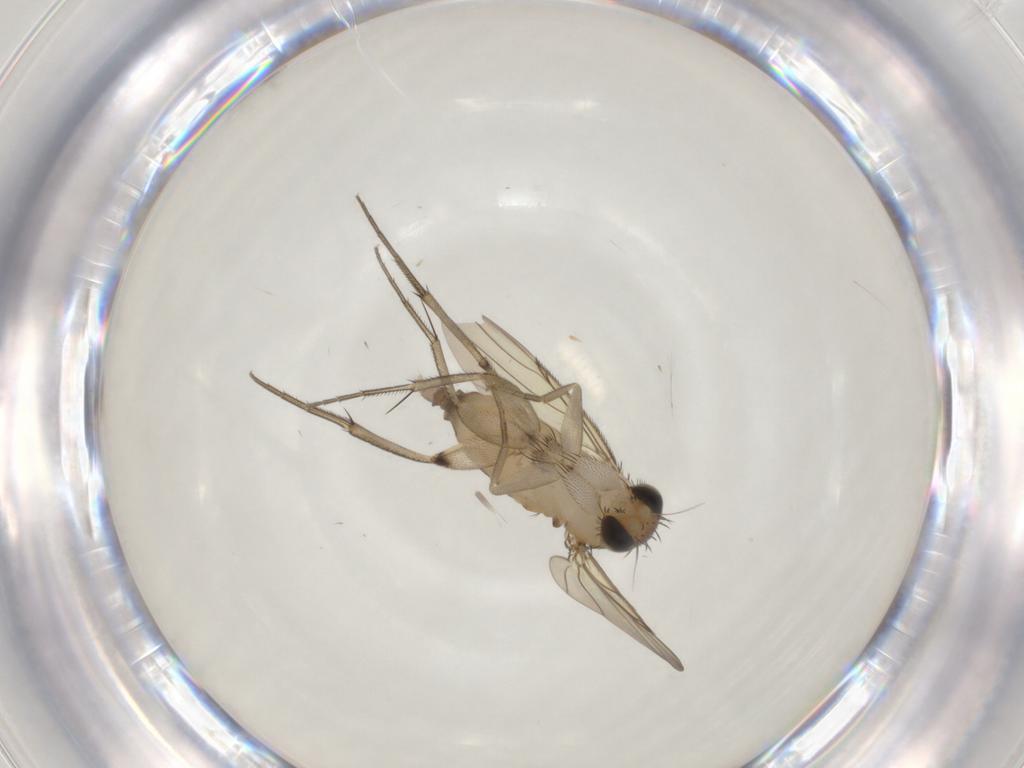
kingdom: Animalia
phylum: Arthropoda
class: Insecta
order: Diptera
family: Phoridae
